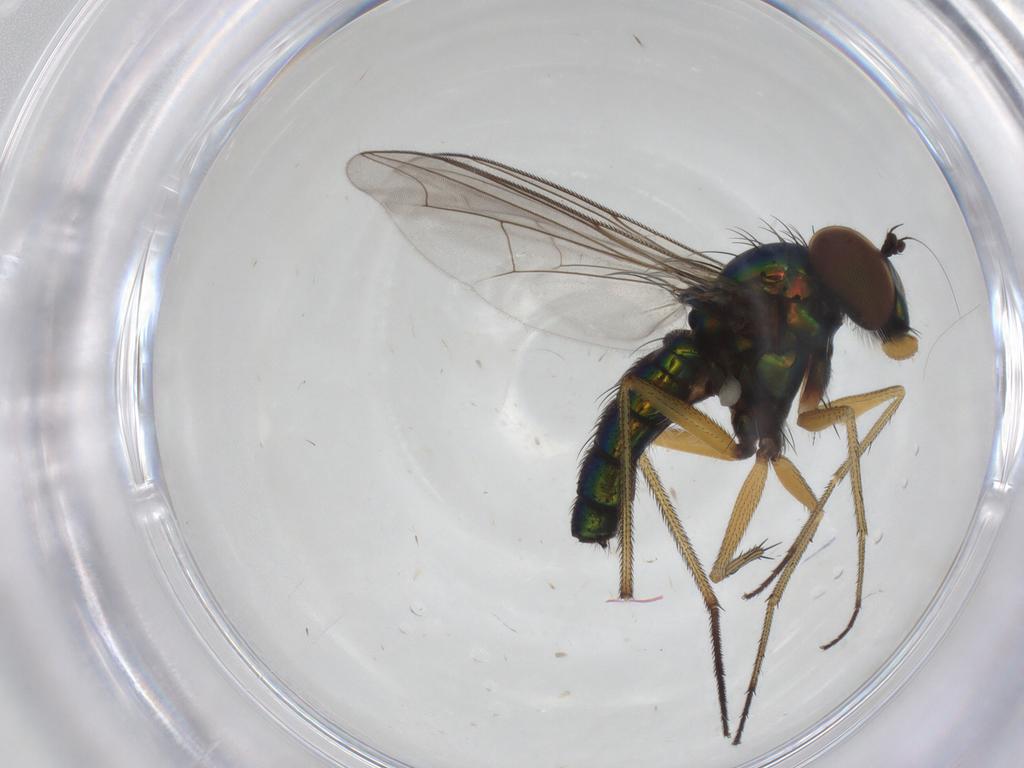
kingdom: Animalia
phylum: Arthropoda
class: Insecta
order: Diptera
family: Dolichopodidae
